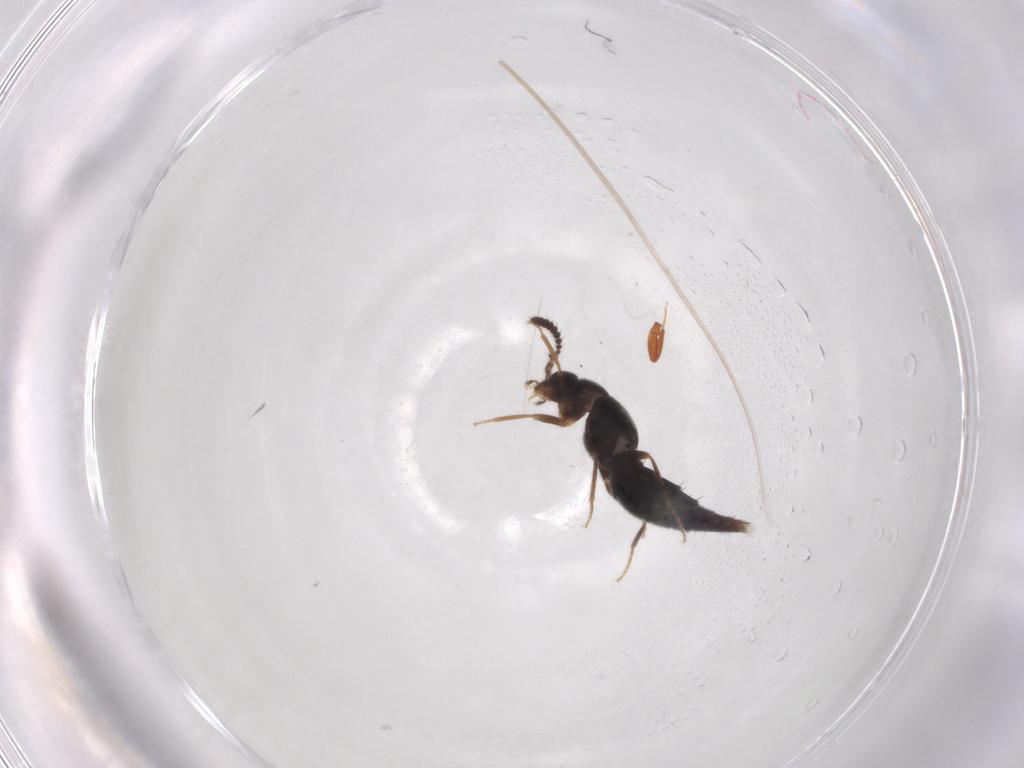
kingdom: Animalia
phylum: Arthropoda
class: Insecta
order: Coleoptera
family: Staphylinidae
